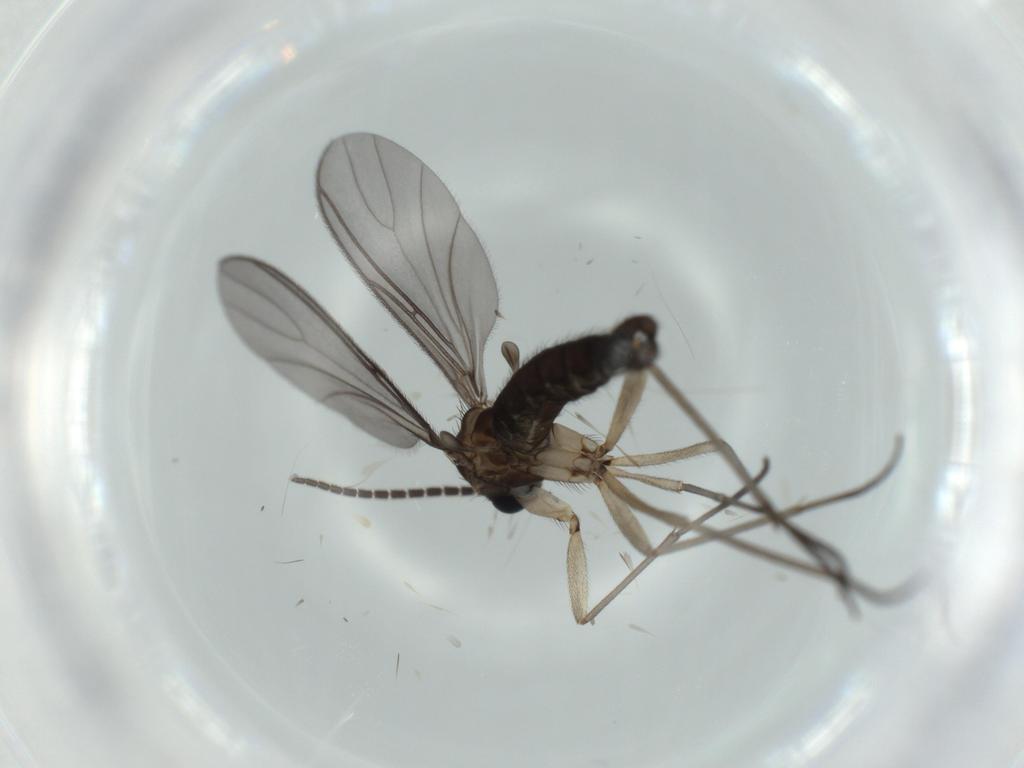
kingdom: Animalia
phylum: Arthropoda
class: Insecta
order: Diptera
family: Sciaridae
